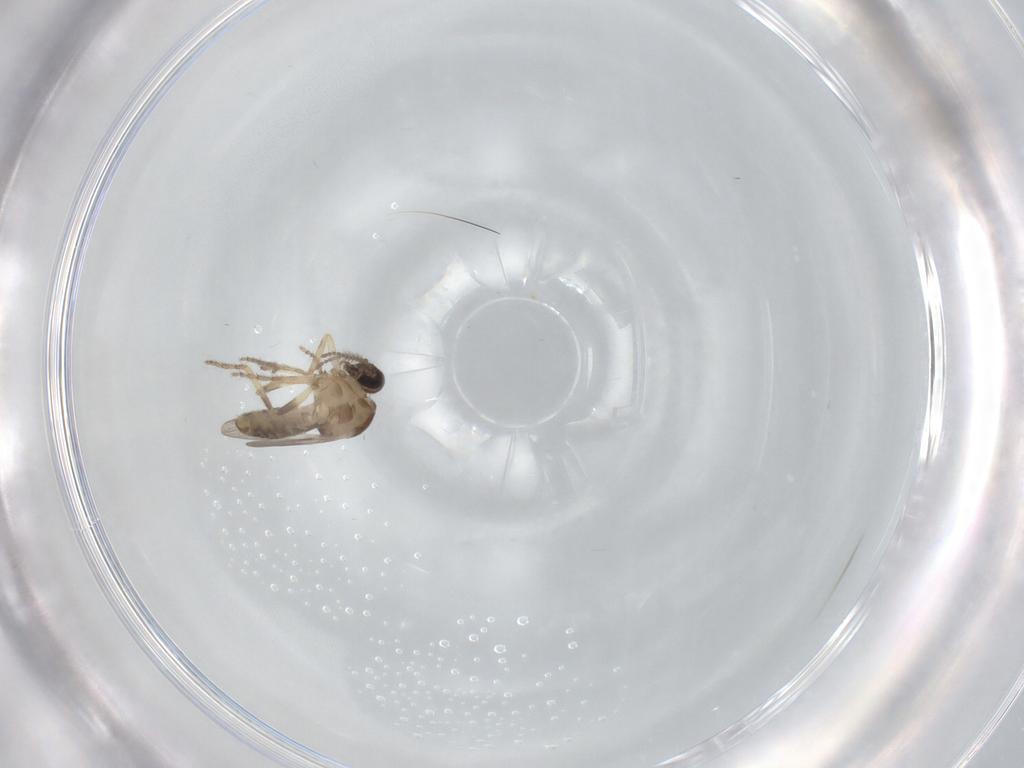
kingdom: Animalia
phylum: Arthropoda
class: Insecta
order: Diptera
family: Ceratopogonidae
